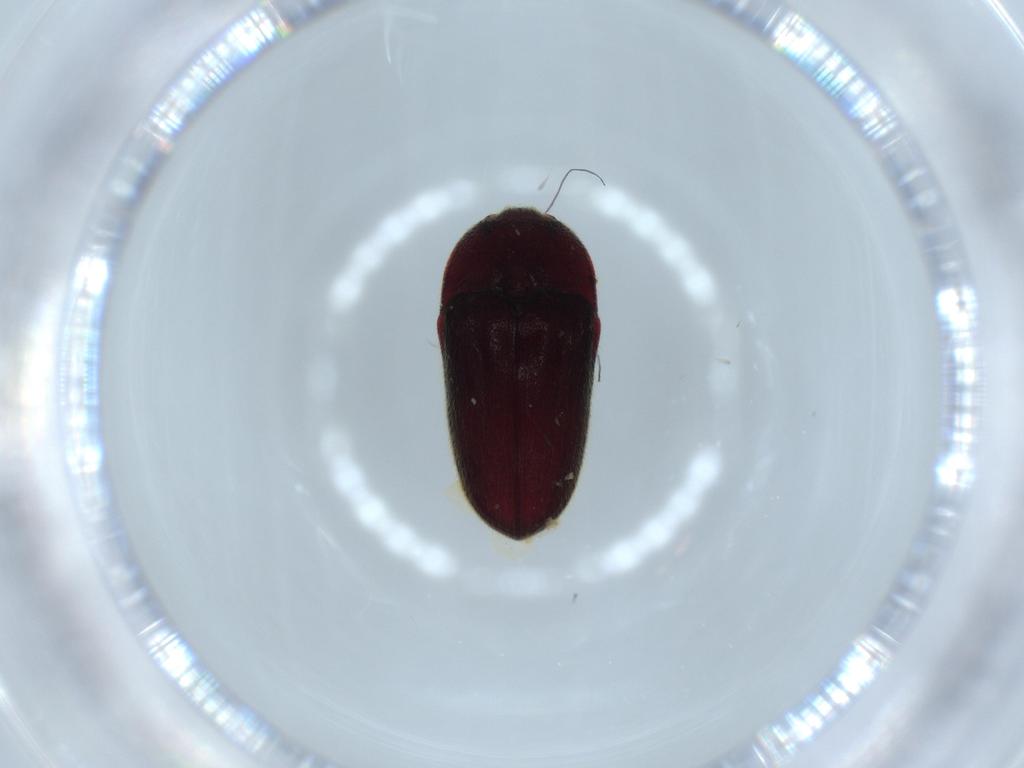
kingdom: Animalia
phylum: Arthropoda
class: Insecta
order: Coleoptera
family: Throscidae
